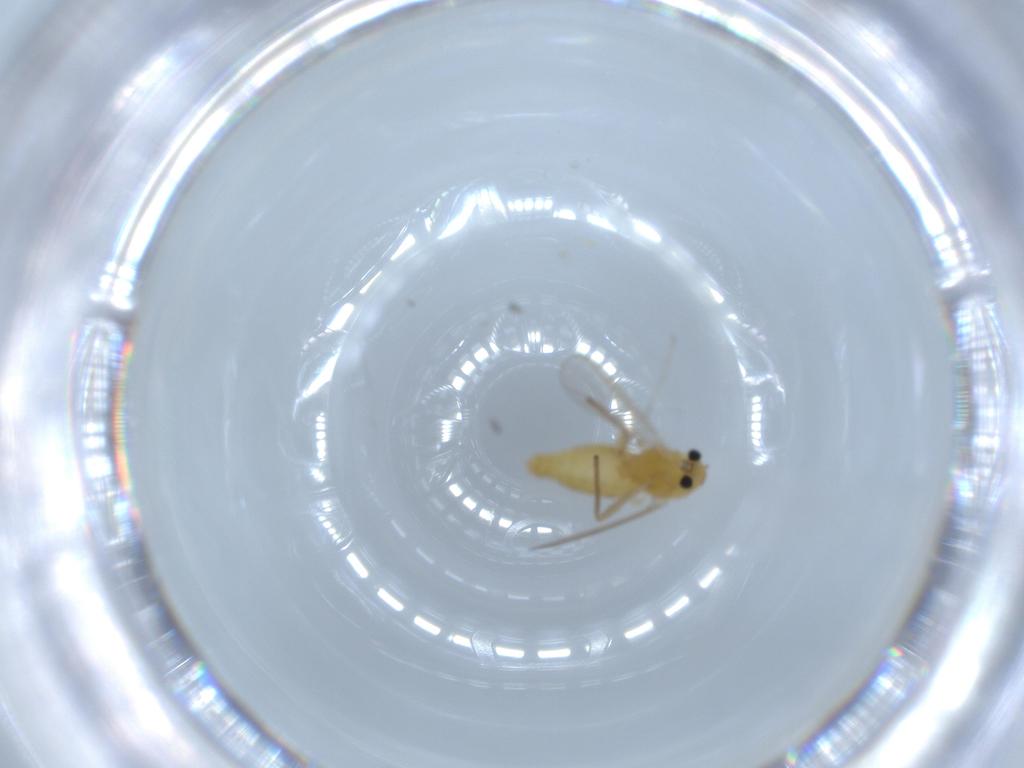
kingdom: Animalia
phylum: Arthropoda
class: Insecta
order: Diptera
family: Chironomidae
